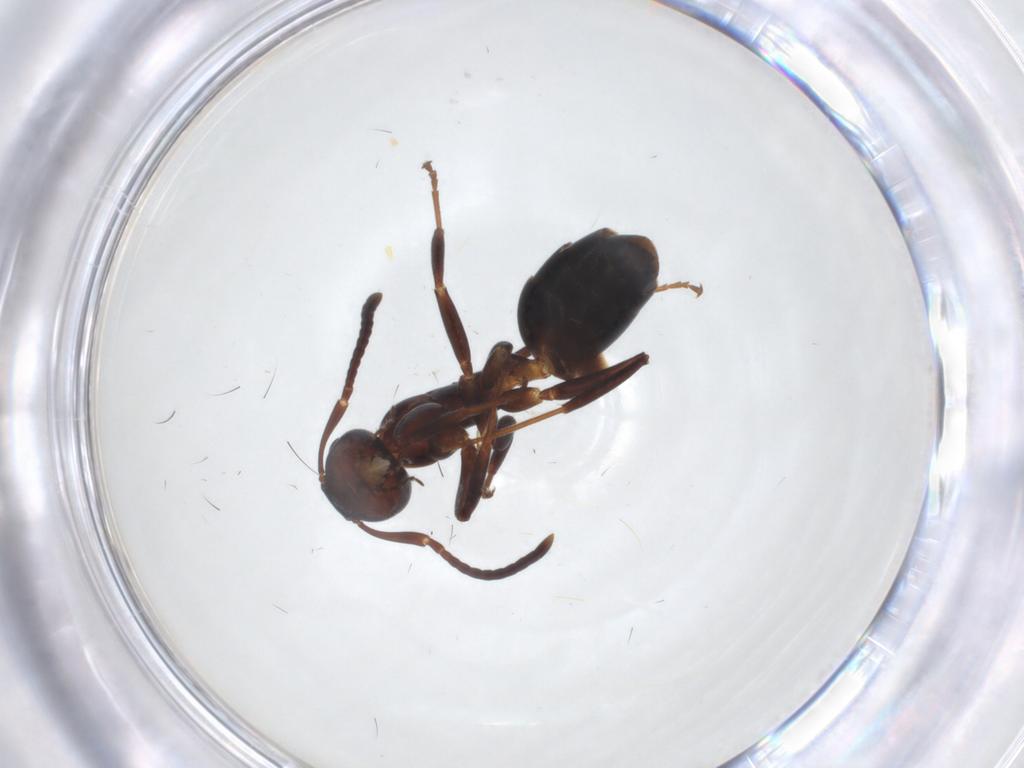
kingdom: Animalia
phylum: Arthropoda
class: Insecta
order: Hymenoptera
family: Formicidae
